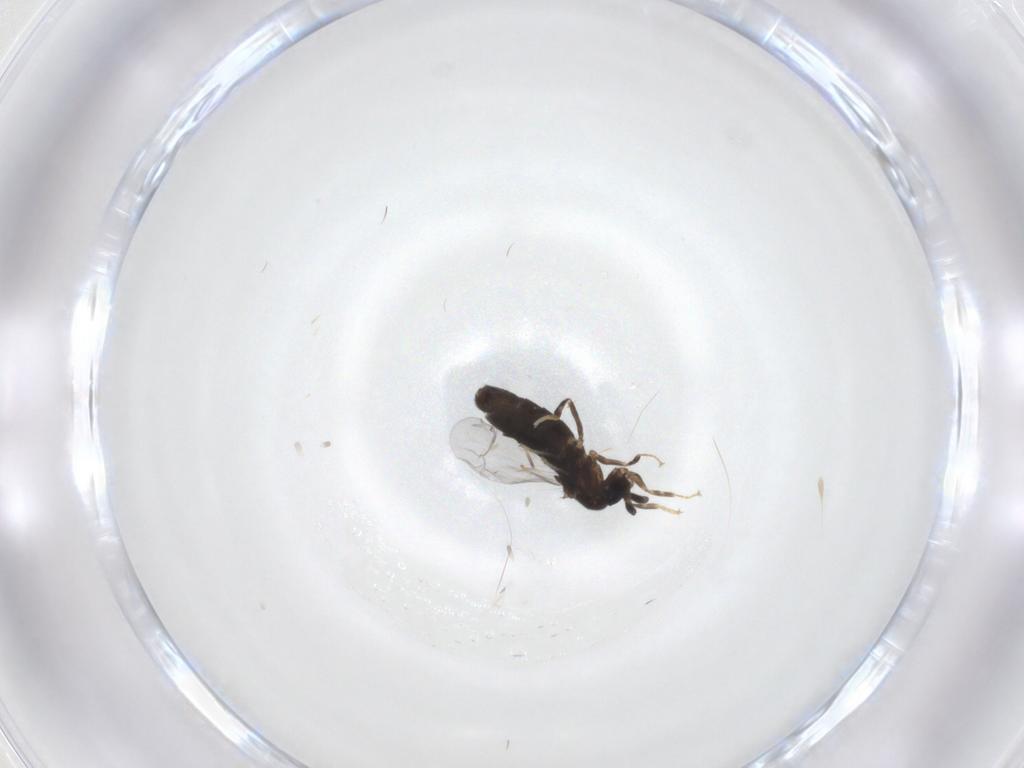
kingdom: Animalia
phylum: Arthropoda
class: Insecta
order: Diptera
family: Scatopsidae
